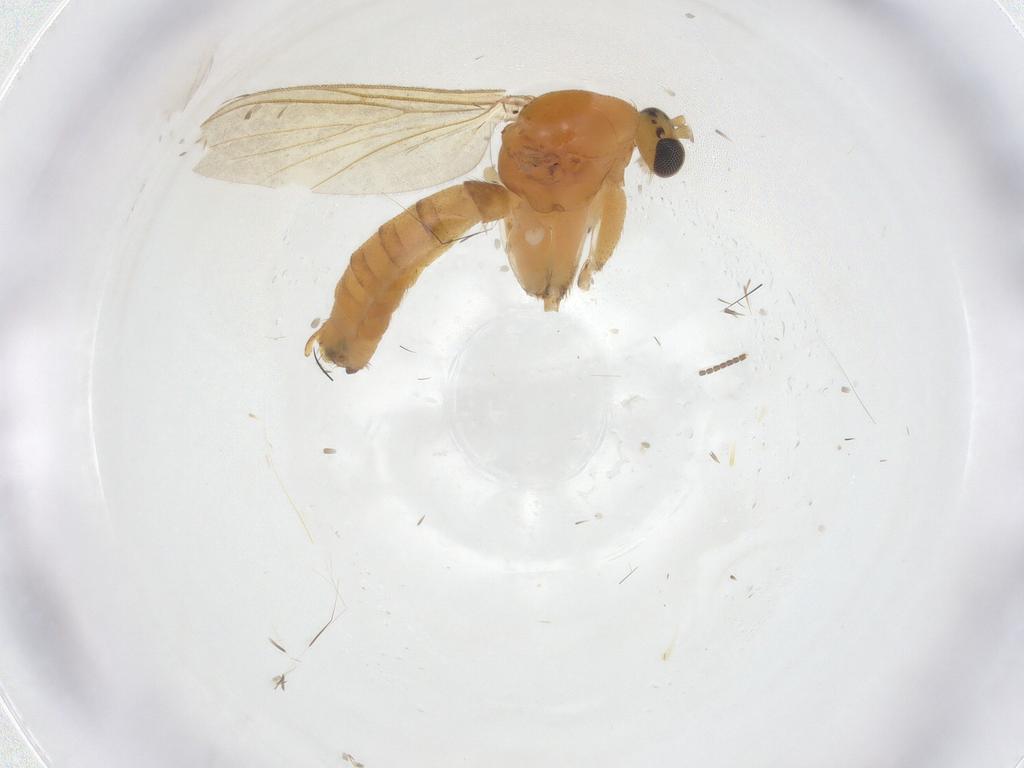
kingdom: Animalia
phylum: Arthropoda
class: Insecta
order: Diptera
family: Mycetophilidae
